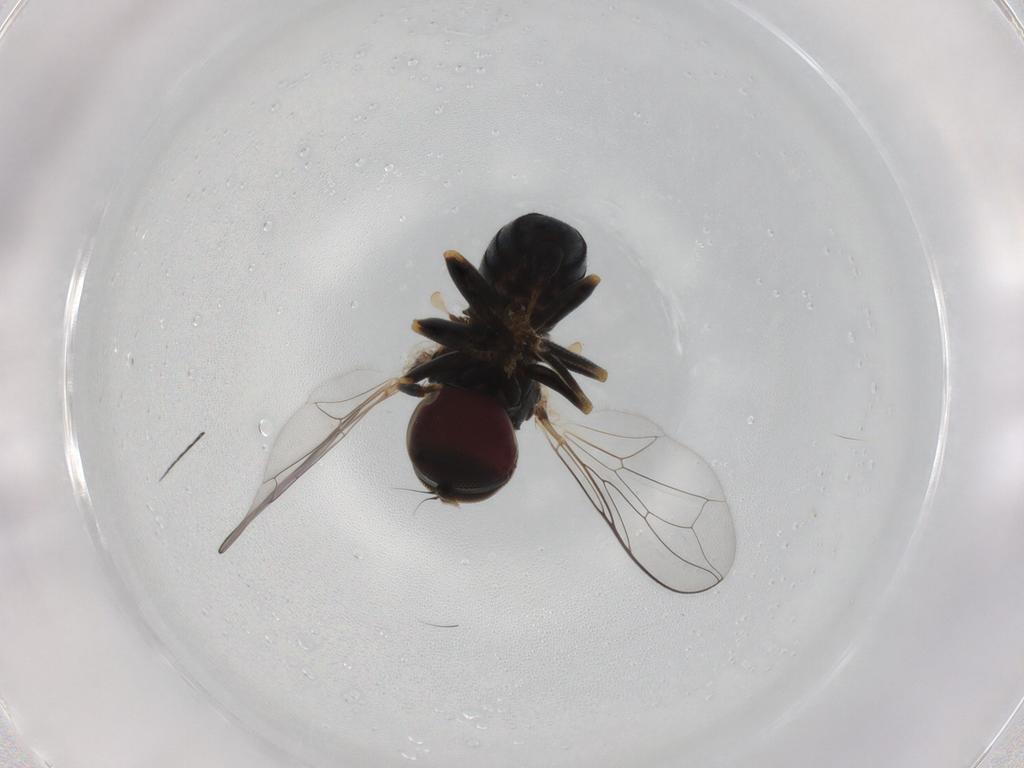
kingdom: Animalia
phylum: Arthropoda
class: Insecta
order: Diptera
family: Pipunculidae
